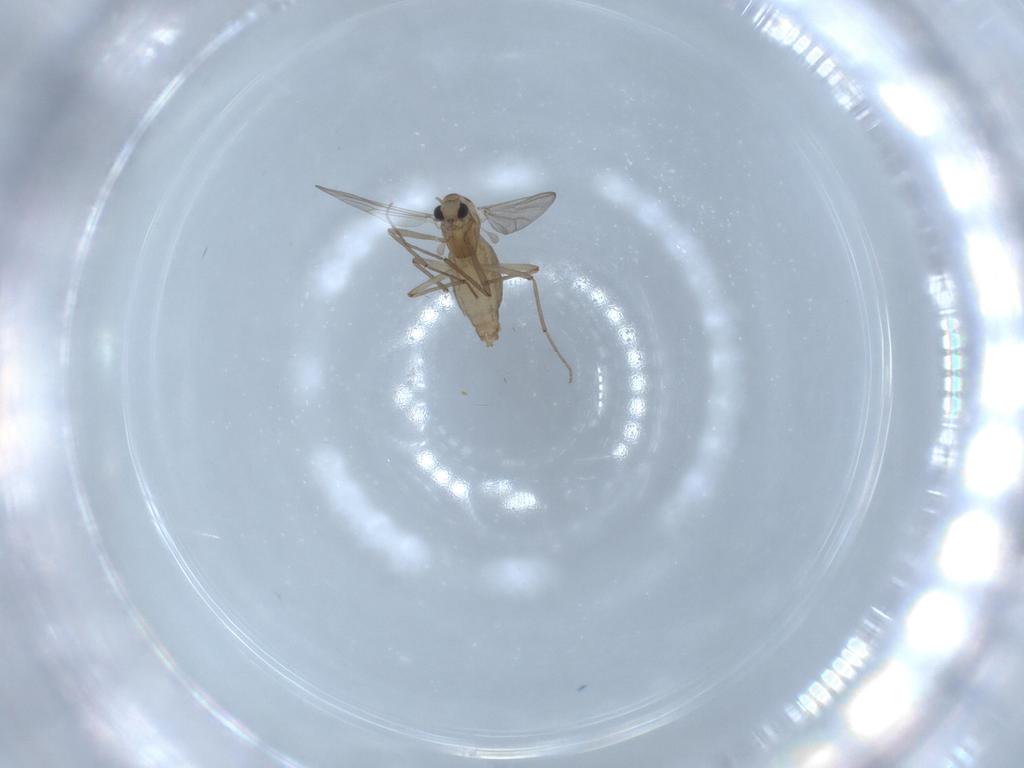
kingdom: Animalia
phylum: Arthropoda
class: Insecta
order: Diptera
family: Chironomidae
